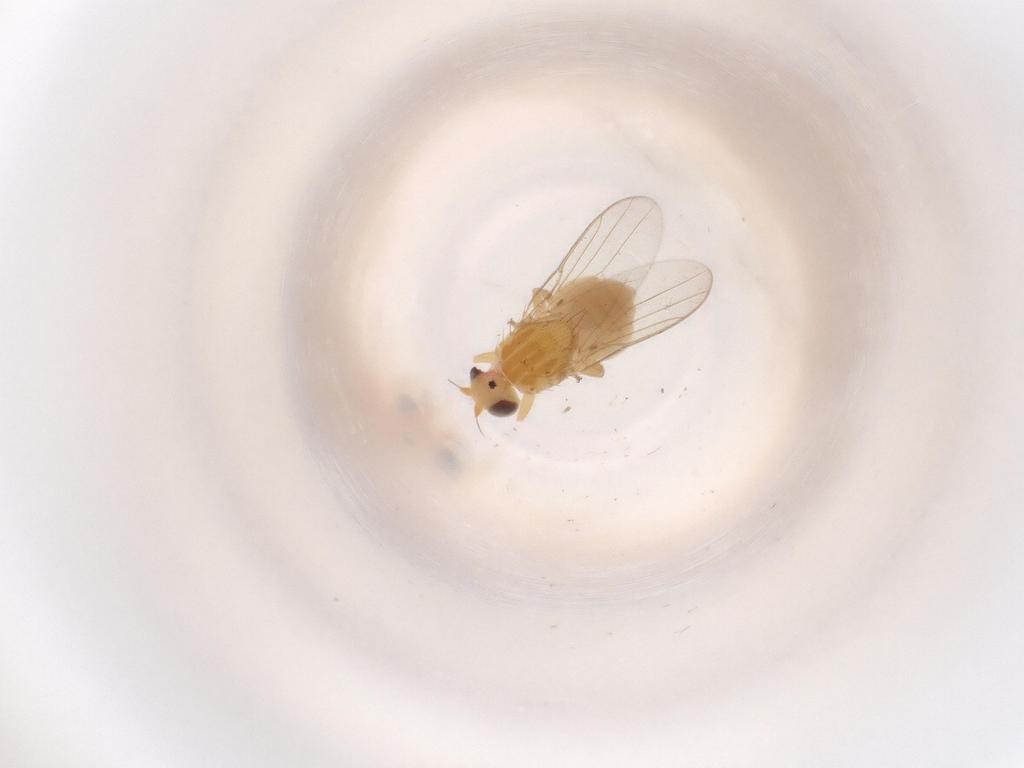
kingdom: Animalia
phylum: Arthropoda
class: Insecta
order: Diptera
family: Chloropidae
